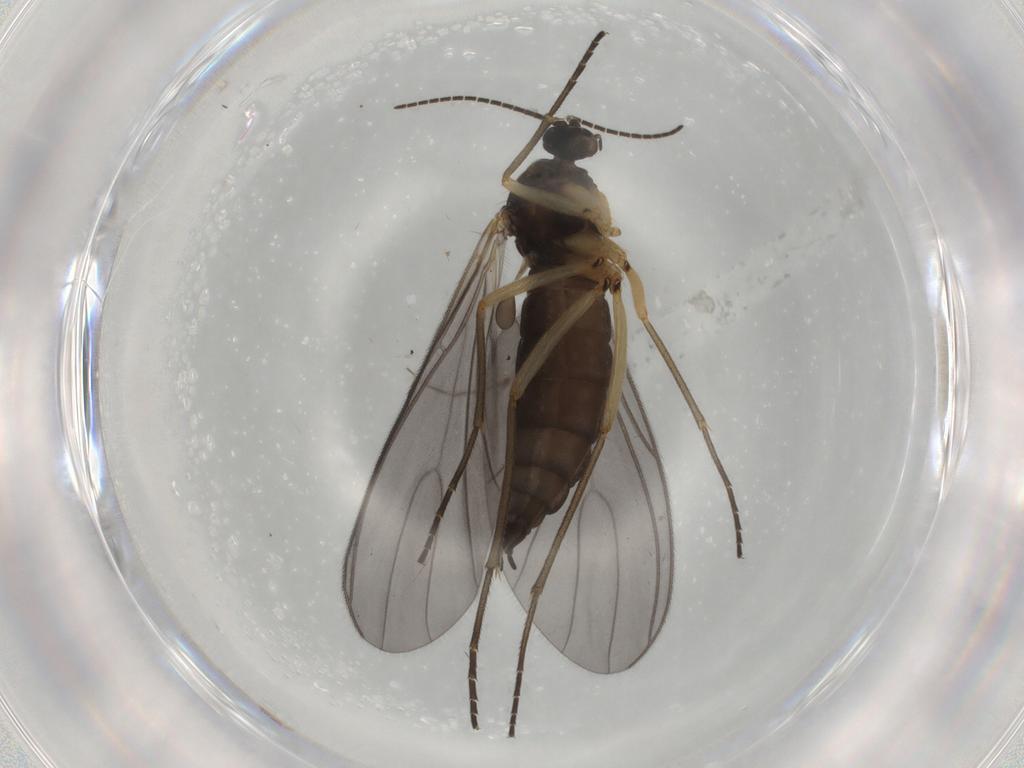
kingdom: Animalia
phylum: Arthropoda
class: Insecta
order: Diptera
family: Sciaridae
